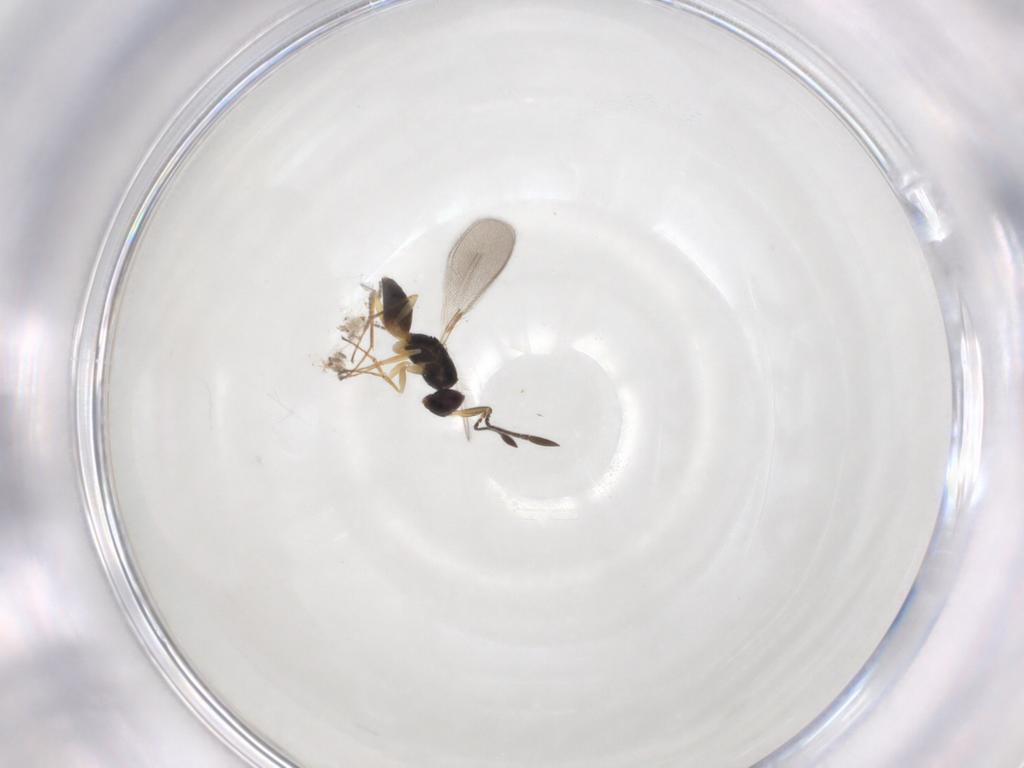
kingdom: Animalia
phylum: Arthropoda
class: Insecta
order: Hymenoptera
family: Mymaridae
